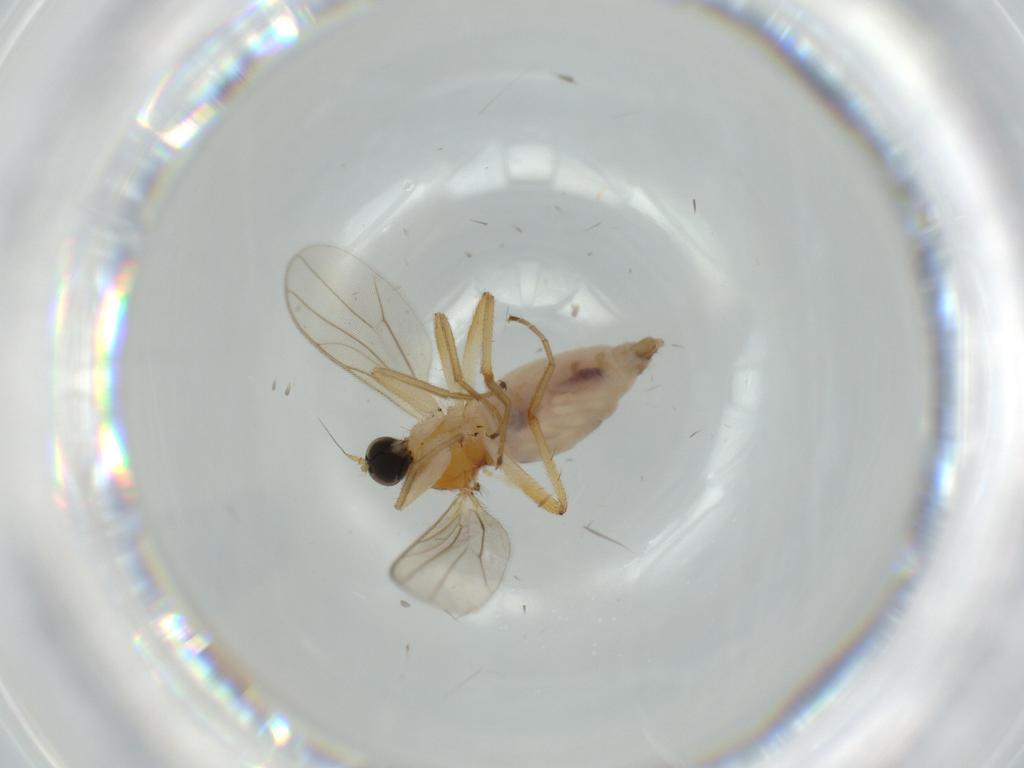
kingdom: Animalia
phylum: Arthropoda
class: Insecta
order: Diptera
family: Hybotidae
